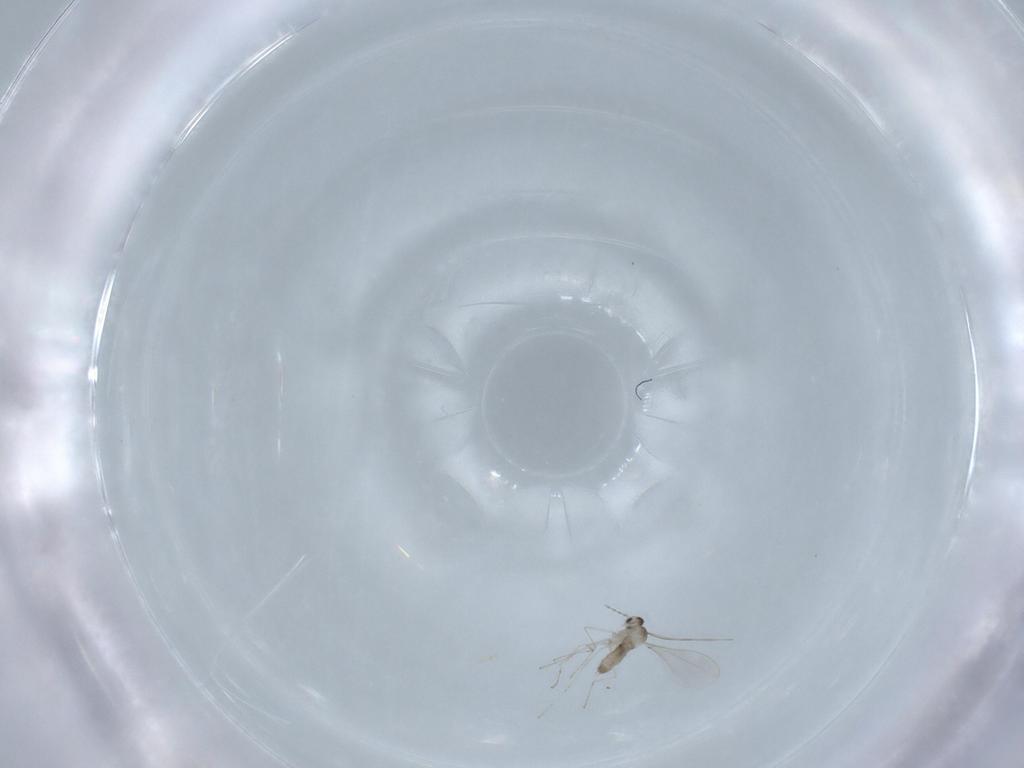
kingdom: Animalia
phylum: Arthropoda
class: Insecta
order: Diptera
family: Cecidomyiidae
